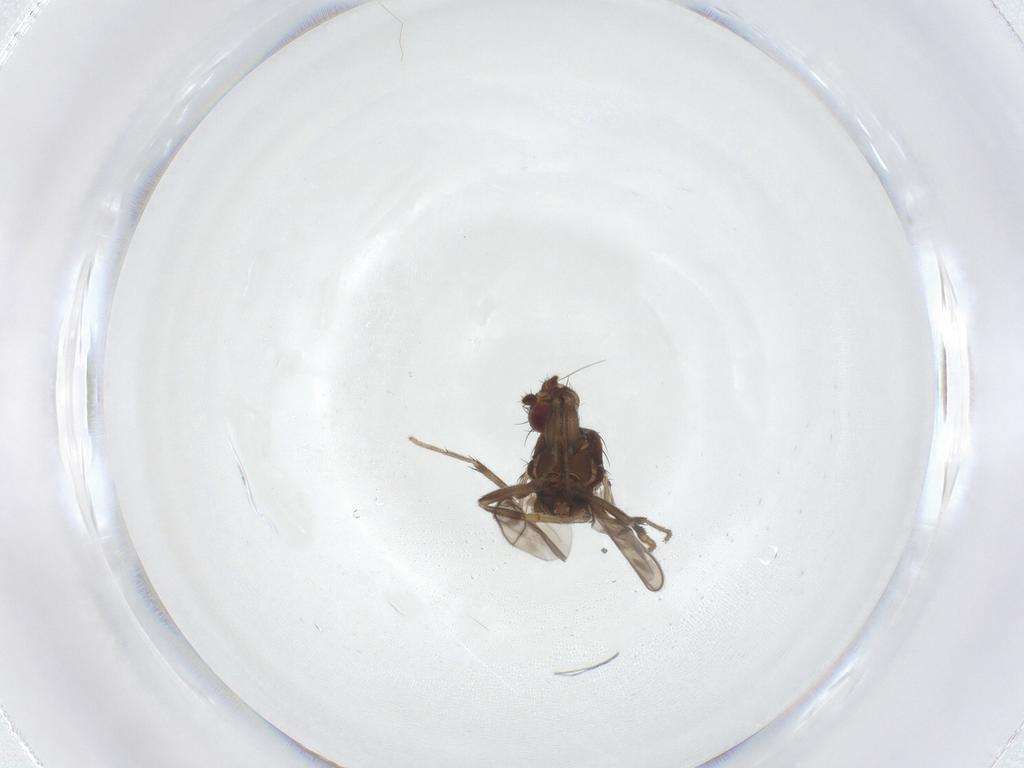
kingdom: Animalia
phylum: Arthropoda
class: Insecta
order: Diptera
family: Sphaeroceridae
